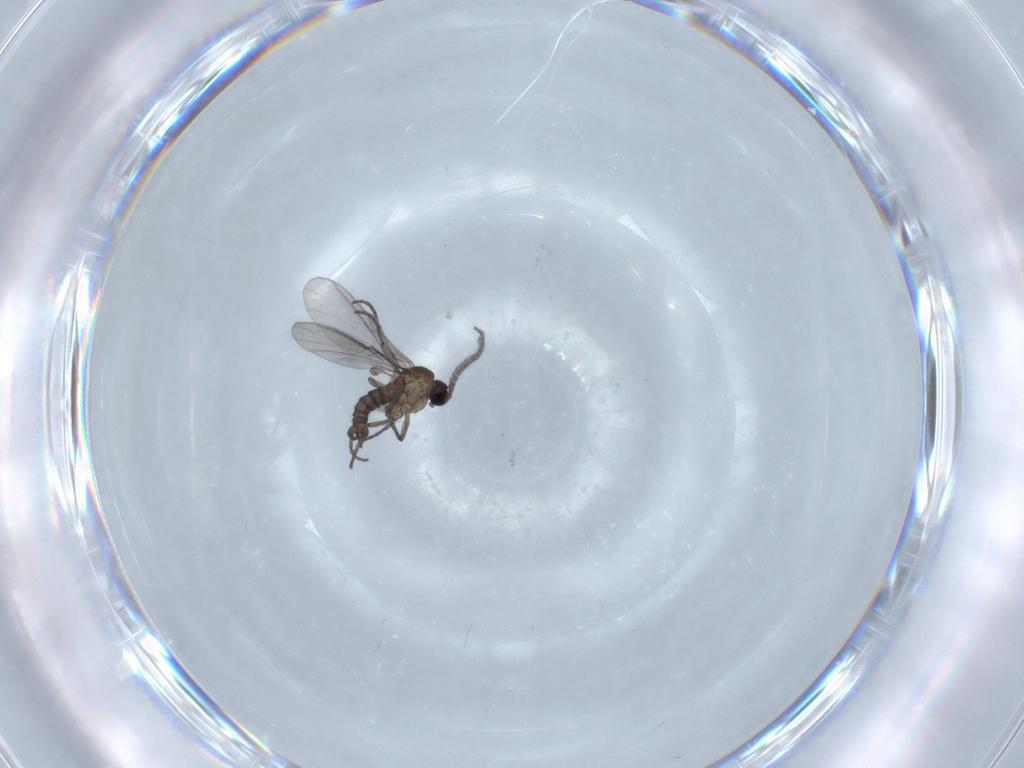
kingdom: Animalia
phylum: Arthropoda
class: Insecta
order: Diptera
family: Sciaridae
